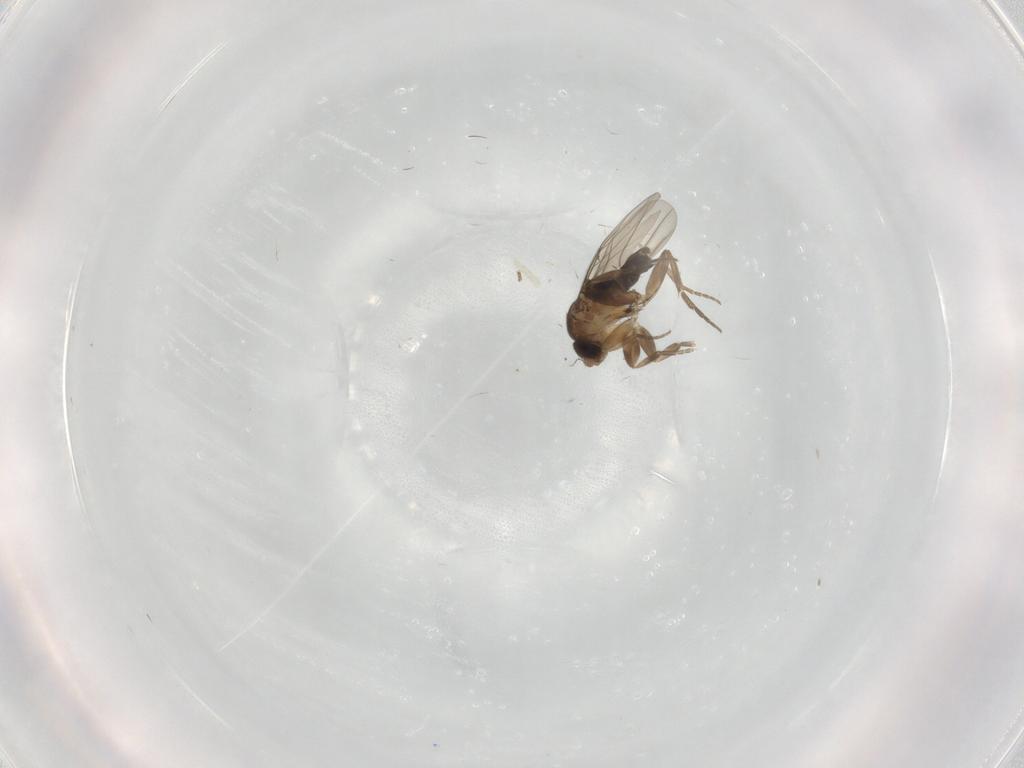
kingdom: Animalia
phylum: Arthropoda
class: Insecta
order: Diptera
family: Phoridae
